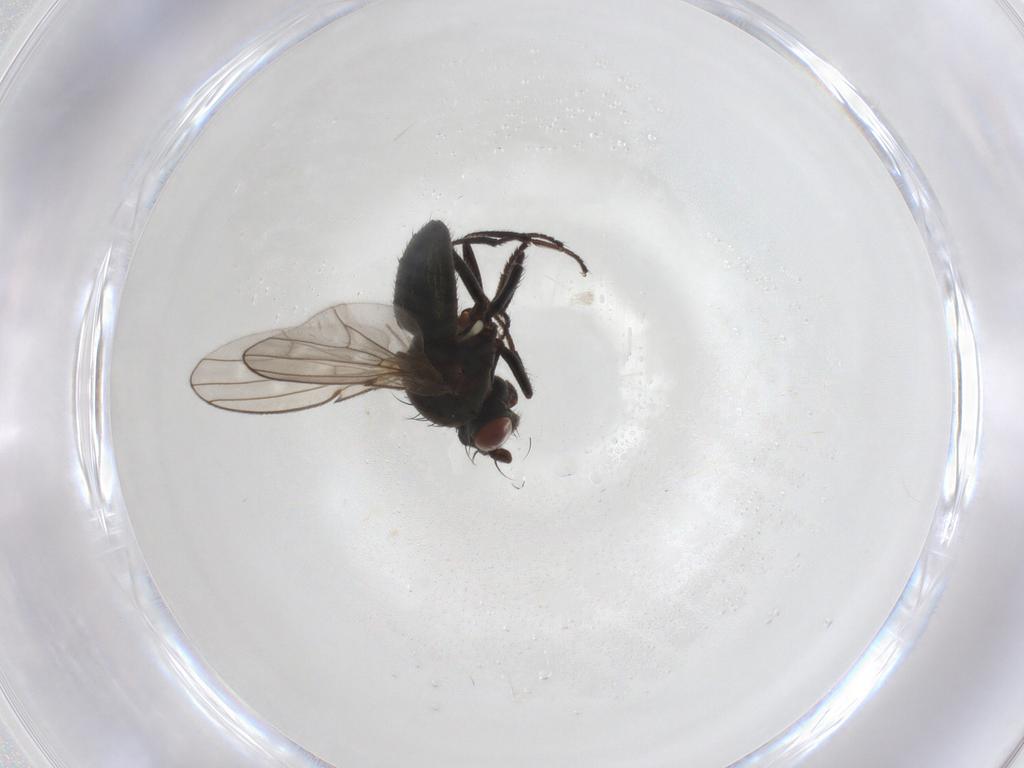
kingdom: Animalia
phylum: Arthropoda
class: Insecta
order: Diptera
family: Ephydridae
